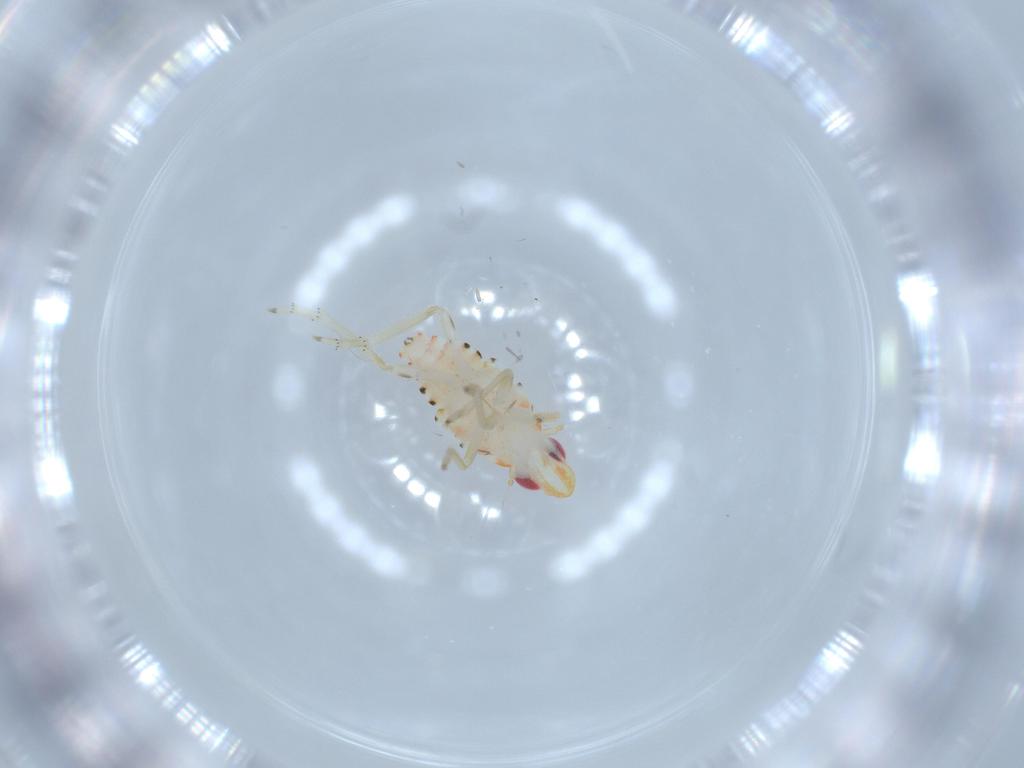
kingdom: Animalia
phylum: Arthropoda
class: Insecta
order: Hemiptera
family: Tropiduchidae
